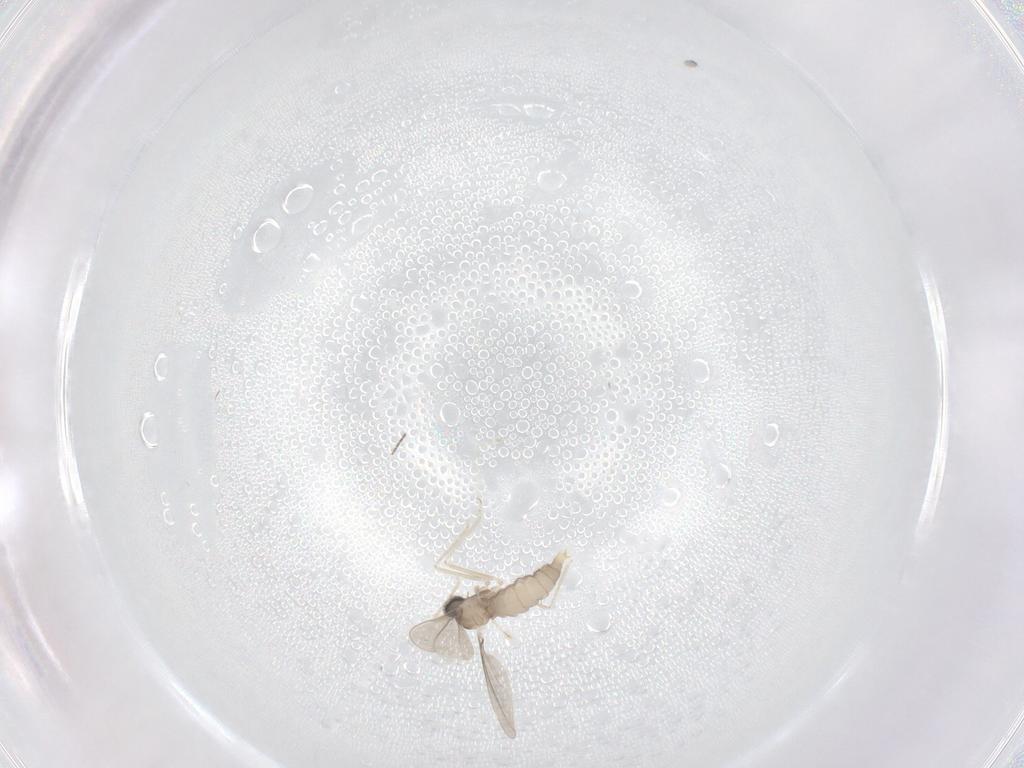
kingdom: Animalia
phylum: Arthropoda
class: Insecta
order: Diptera
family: Cecidomyiidae
